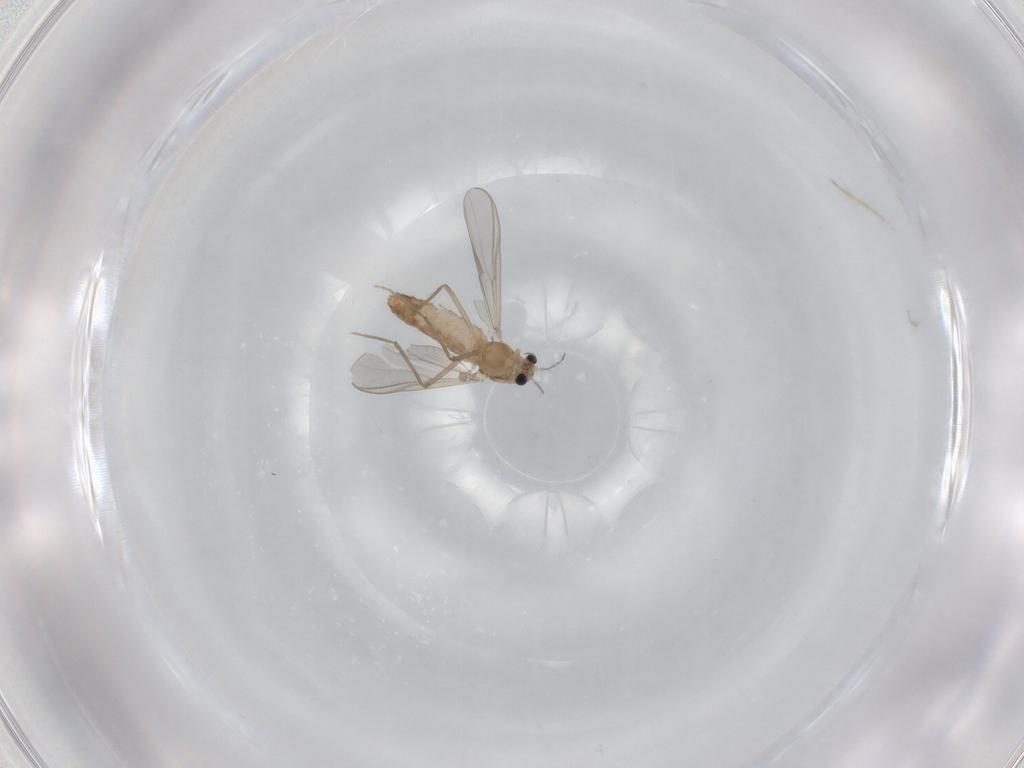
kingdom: Animalia
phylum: Arthropoda
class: Insecta
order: Diptera
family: Chironomidae
